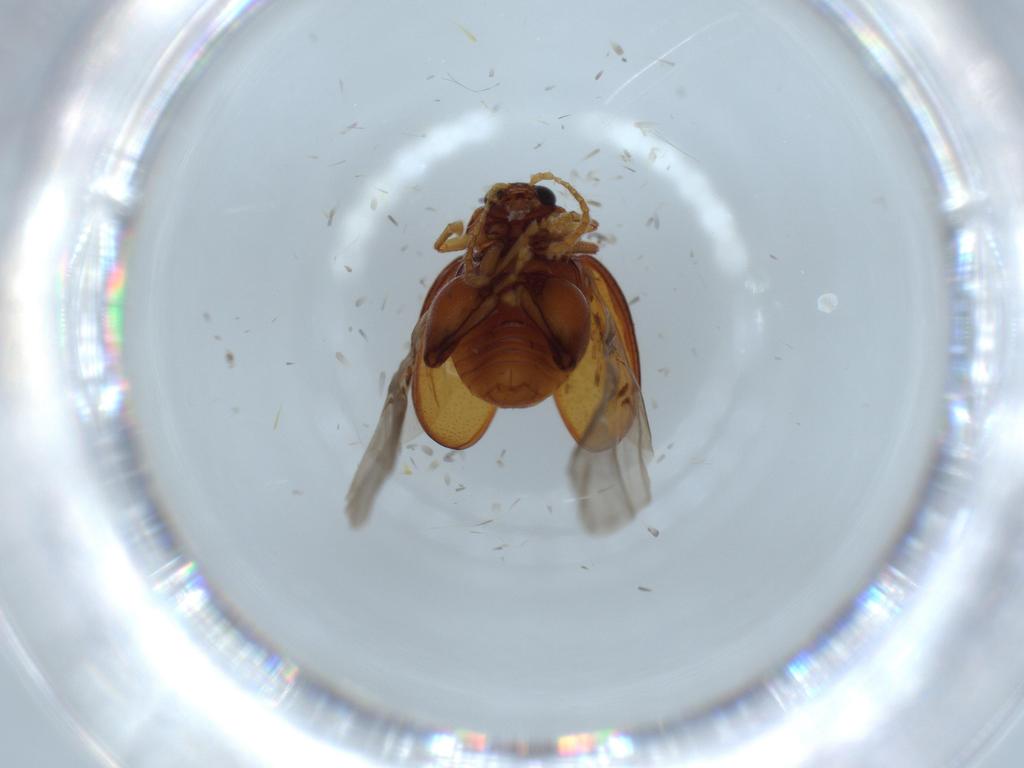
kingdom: Animalia
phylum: Arthropoda
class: Insecta
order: Coleoptera
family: Chrysomelidae
